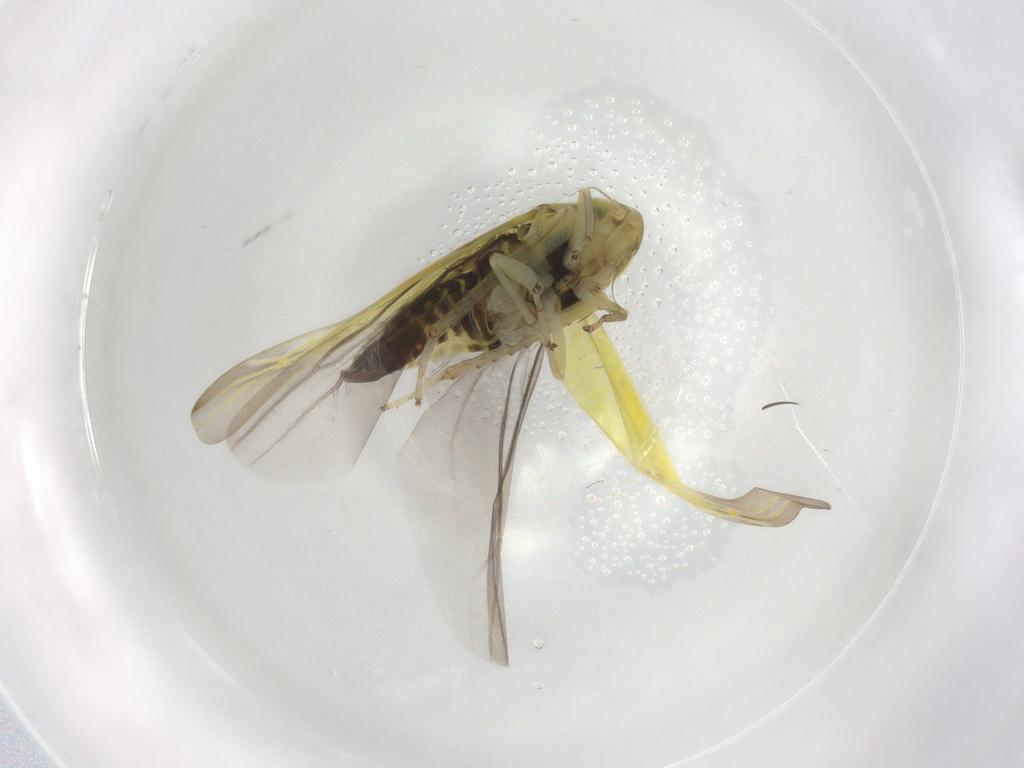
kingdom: Animalia
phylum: Arthropoda
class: Insecta
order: Hemiptera
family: Cicadellidae
